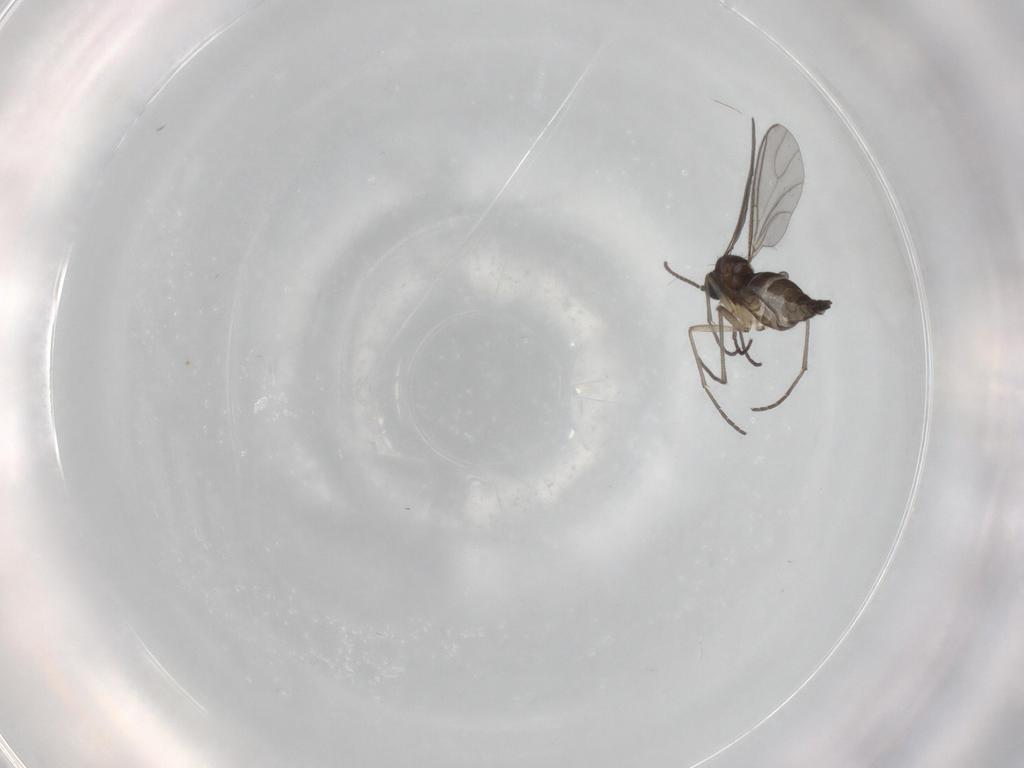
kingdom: Animalia
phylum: Arthropoda
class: Insecta
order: Diptera
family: Sciaridae
